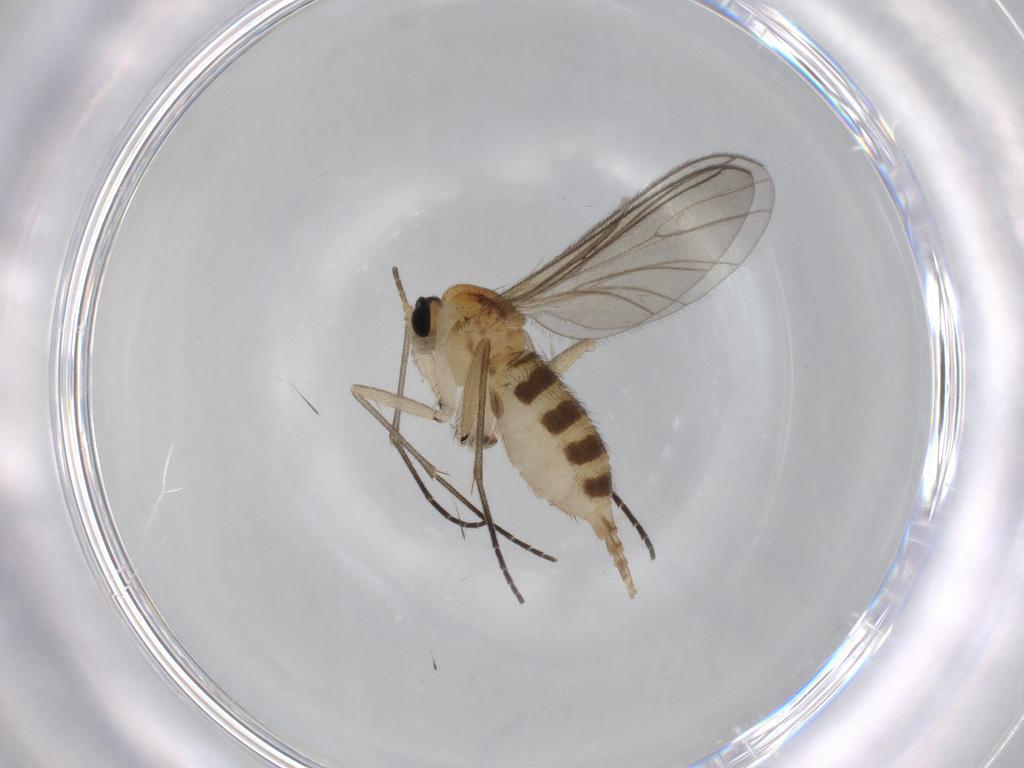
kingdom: Animalia
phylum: Arthropoda
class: Insecta
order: Diptera
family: Sciaridae
